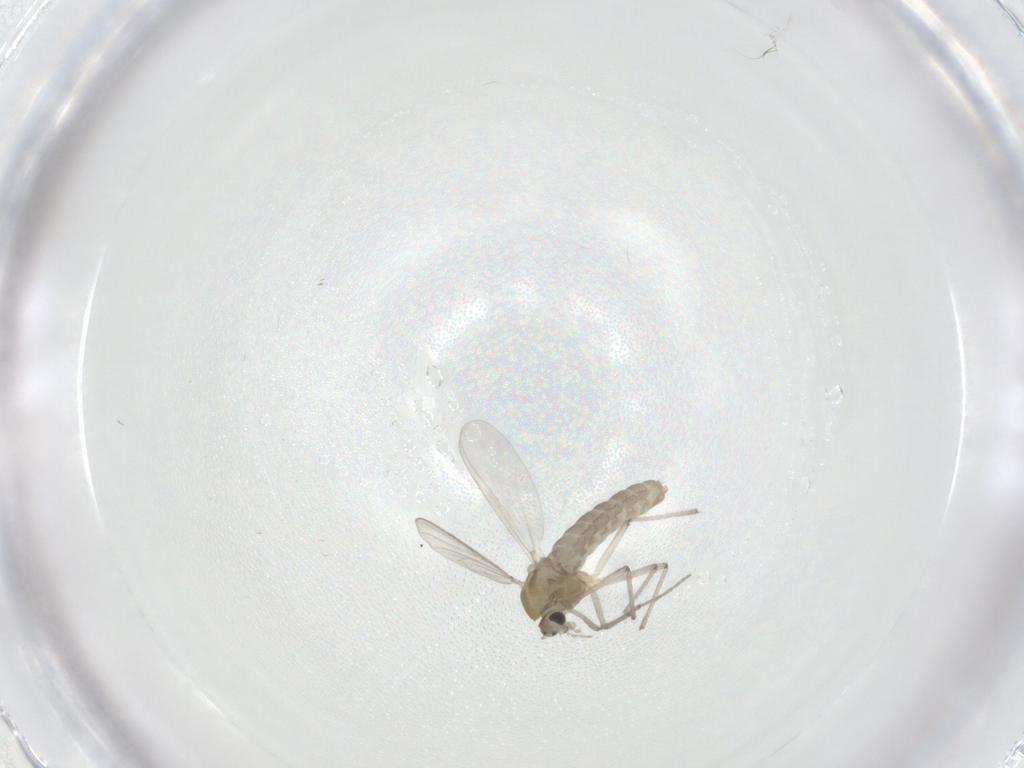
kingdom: Animalia
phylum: Arthropoda
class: Insecta
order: Diptera
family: Chironomidae
